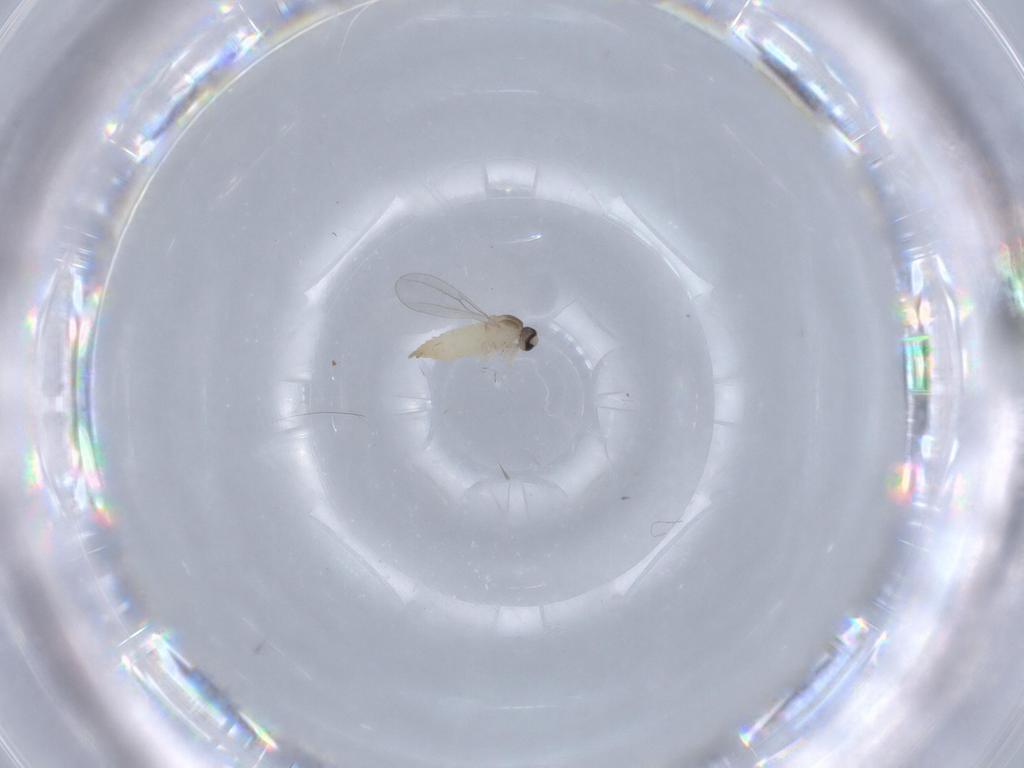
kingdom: Animalia
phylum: Arthropoda
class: Insecta
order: Diptera
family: Cecidomyiidae
